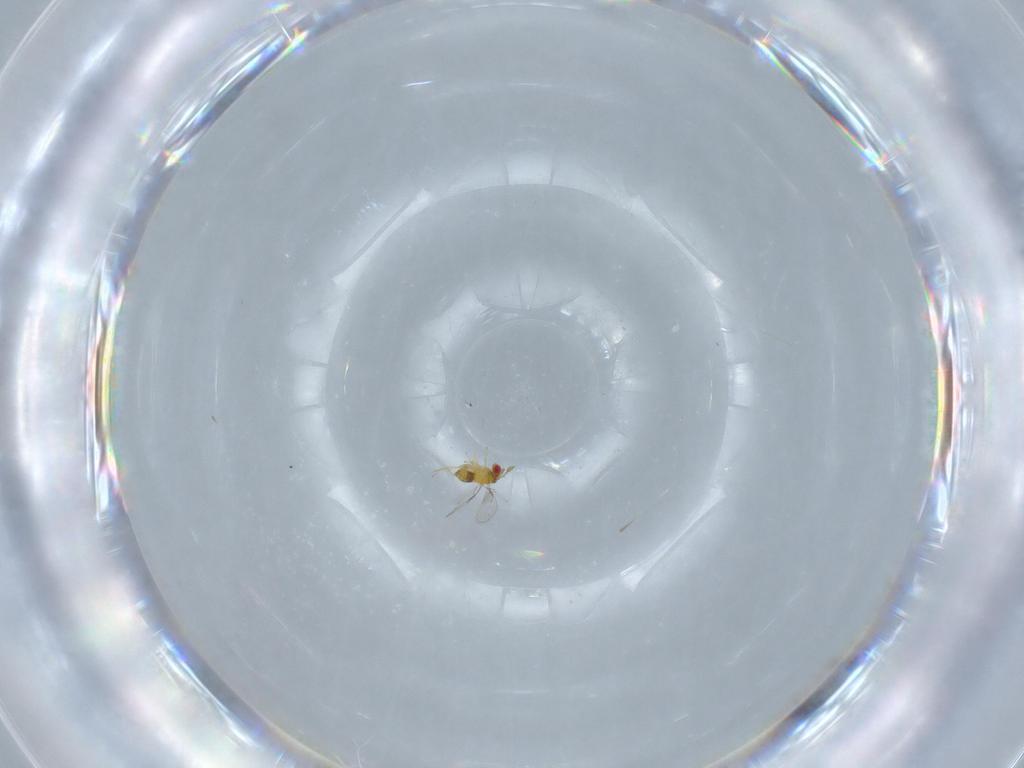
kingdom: Animalia
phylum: Arthropoda
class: Insecta
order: Hymenoptera
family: Trichogrammatidae
